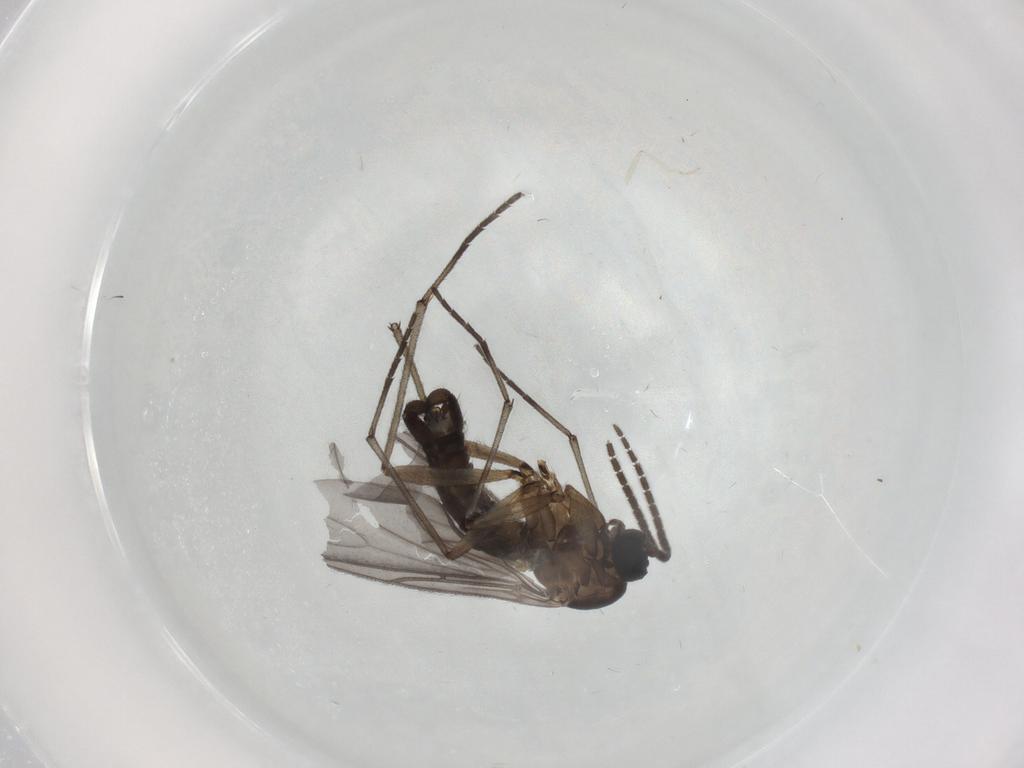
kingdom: Animalia
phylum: Arthropoda
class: Insecta
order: Diptera
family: Sciaridae
